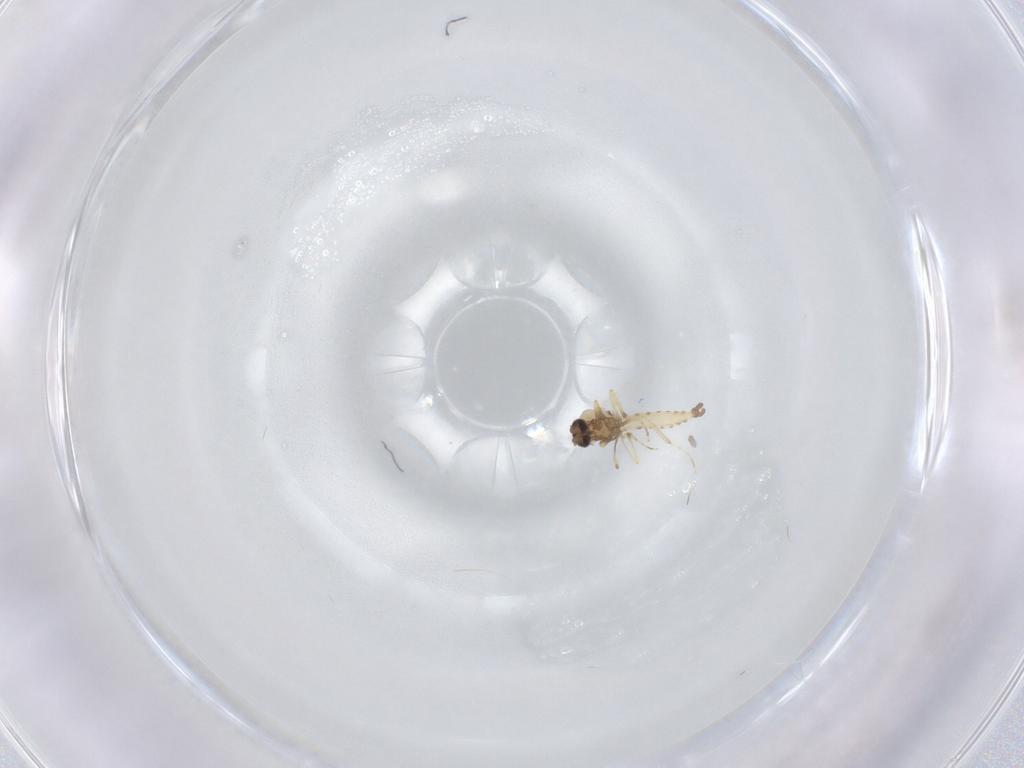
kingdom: Animalia
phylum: Arthropoda
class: Insecta
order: Diptera
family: Ceratopogonidae
